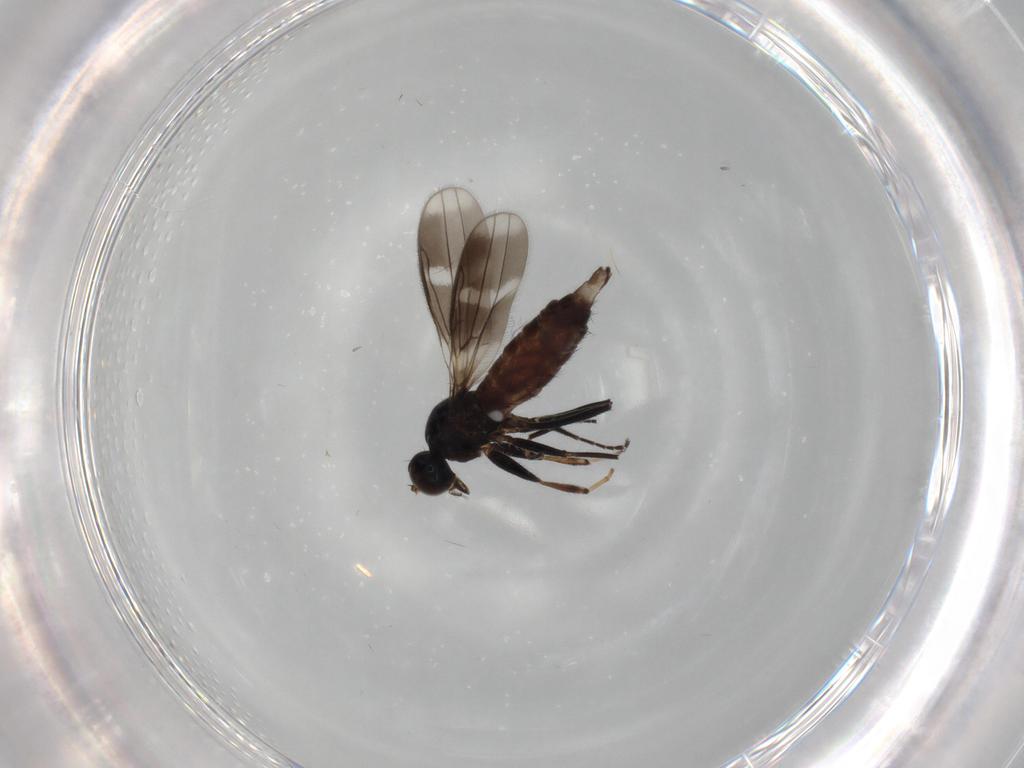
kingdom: Animalia
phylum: Arthropoda
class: Insecta
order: Diptera
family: Hybotidae
